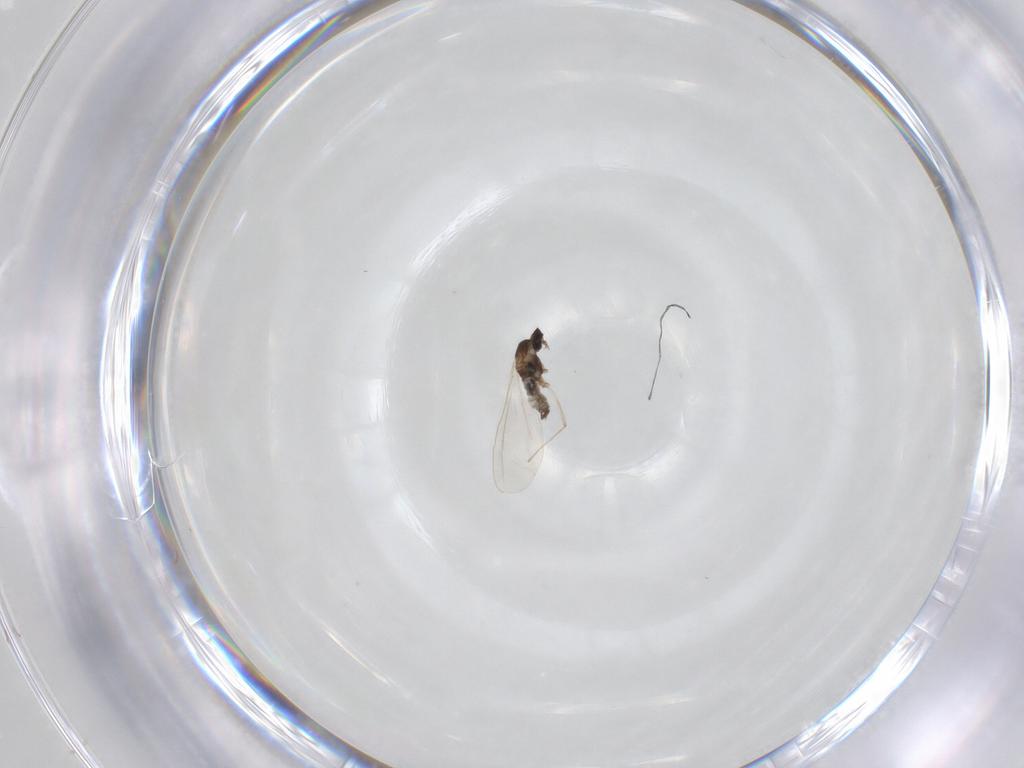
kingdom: Animalia
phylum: Arthropoda
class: Insecta
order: Diptera
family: Cecidomyiidae
